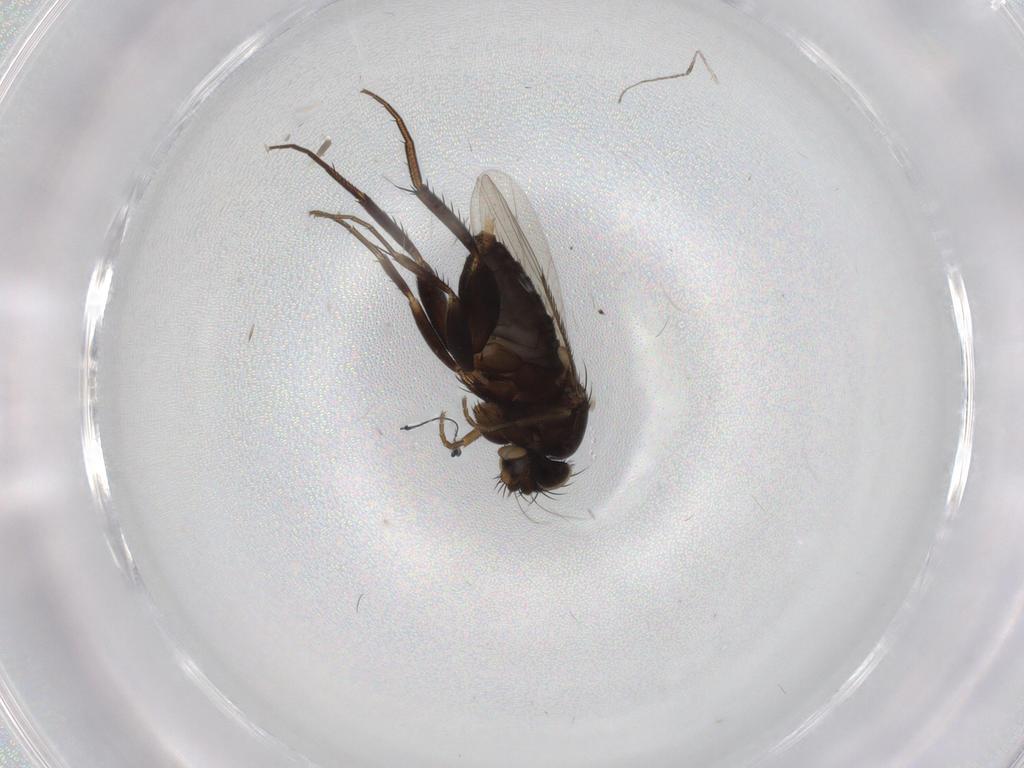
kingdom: Animalia
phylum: Arthropoda
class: Insecta
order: Diptera
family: Phoridae
